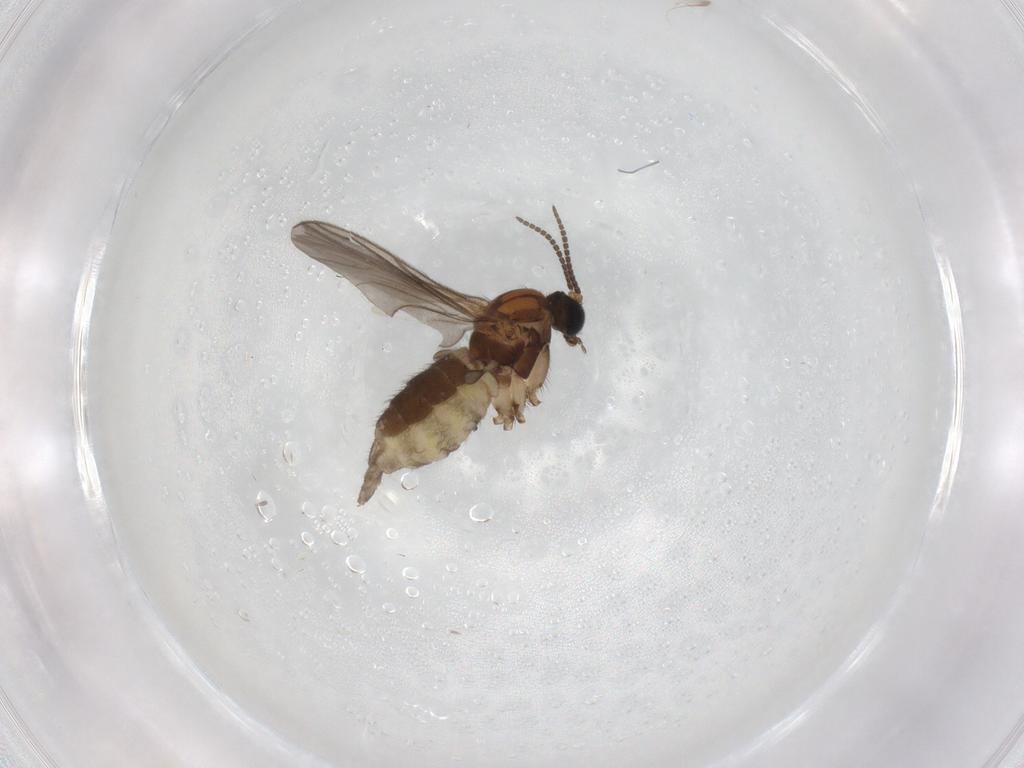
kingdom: Animalia
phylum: Arthropoda
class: Insecta
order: Diptera
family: Sciaridae
